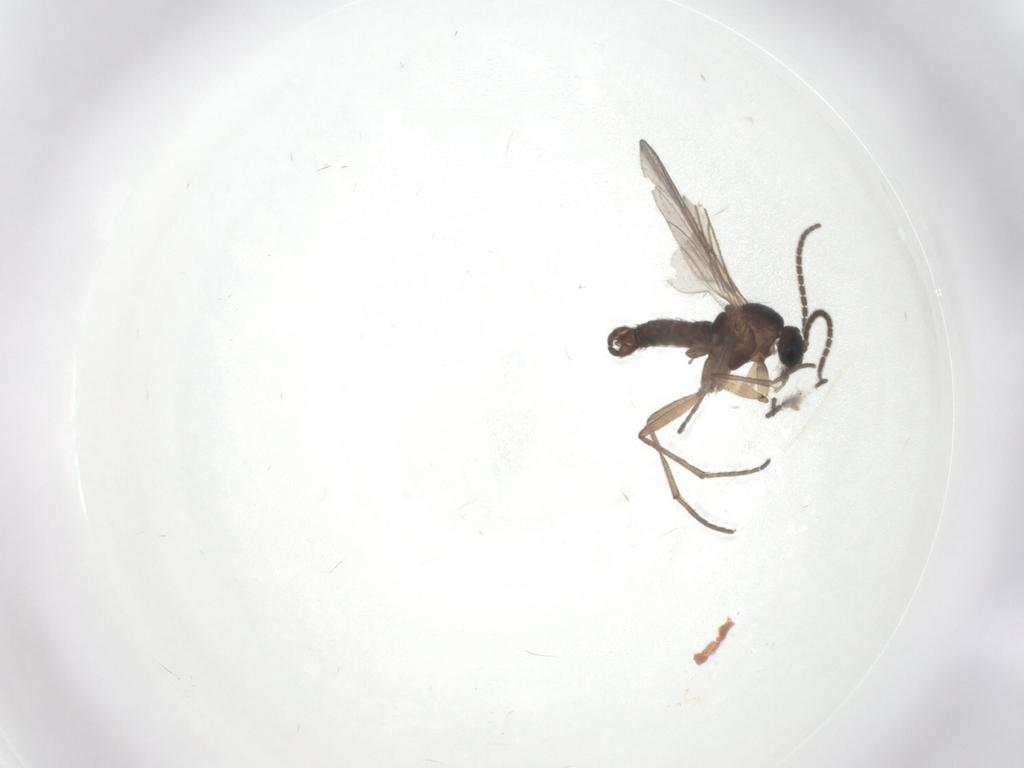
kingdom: Animalia
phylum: Arthropoda
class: Insecta
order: Diptera
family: Sciaridae
